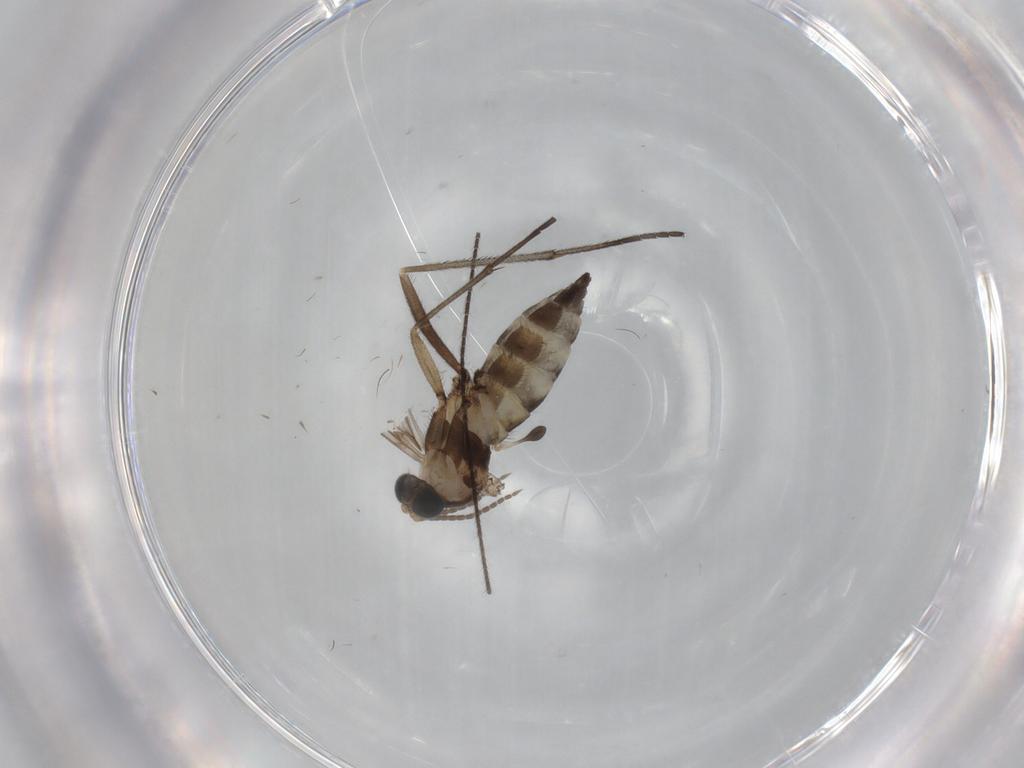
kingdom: Animalia
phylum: Arthropoda
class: Insecta
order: Diptera
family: Sciaridae
